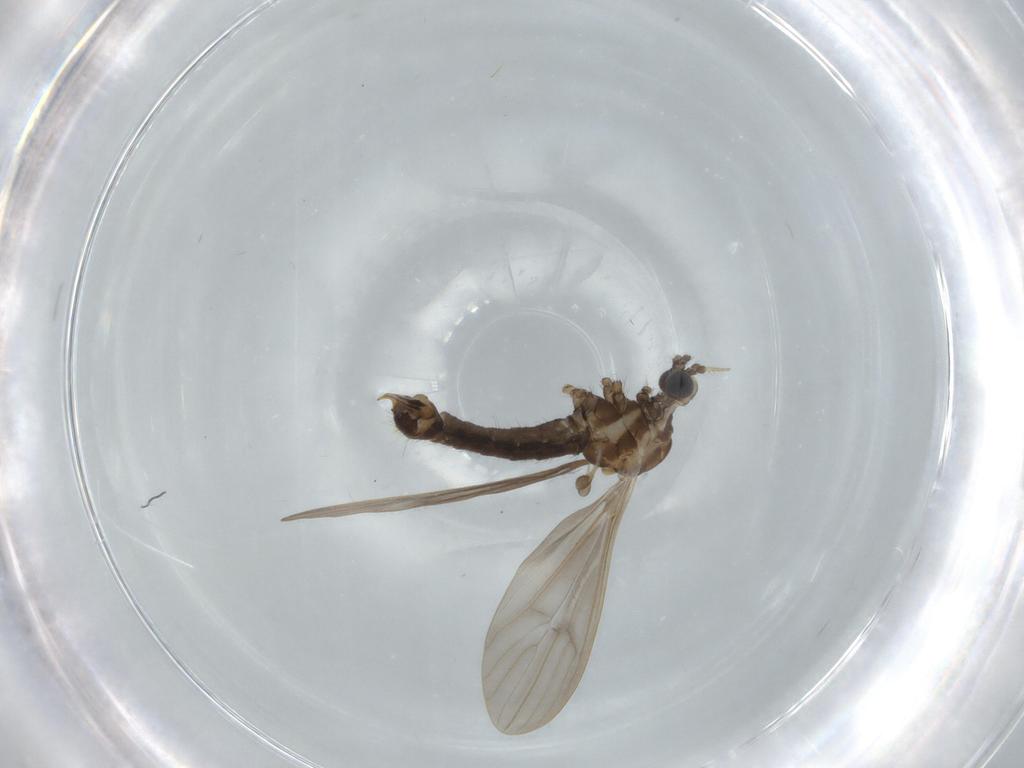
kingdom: Animalia
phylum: Arthropoda
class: Insecta
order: Diptera
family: Limoniidae
